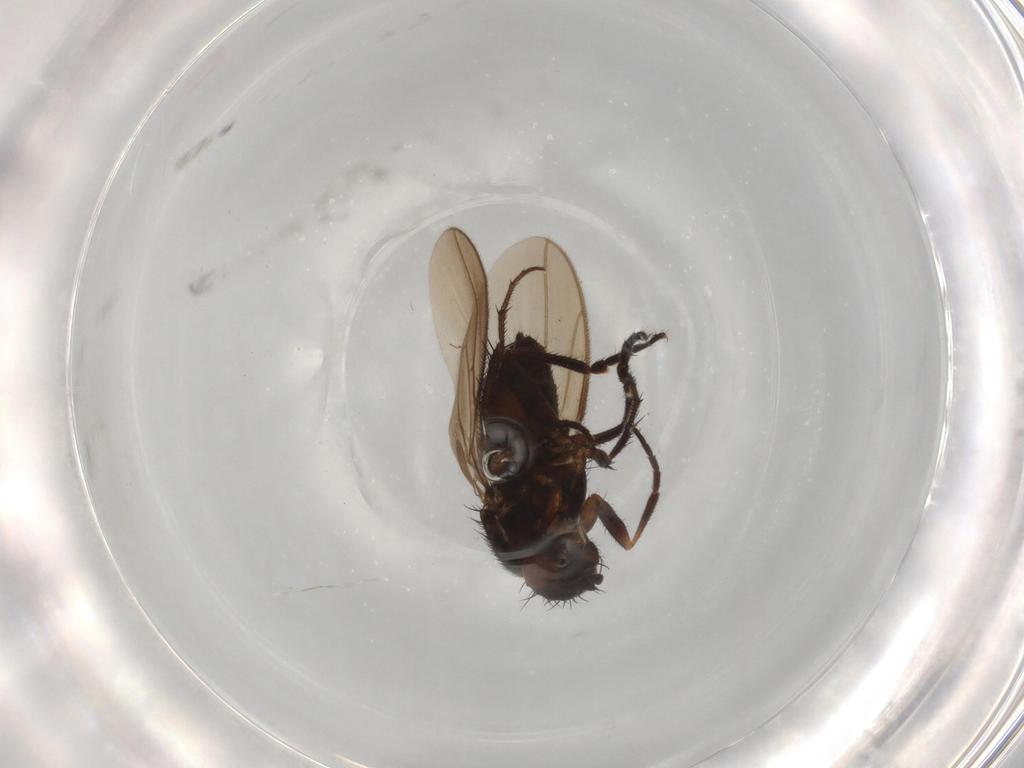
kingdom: Animalia
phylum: Arthropoda
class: Insecta
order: Diptera
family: Sphaeroceridae
